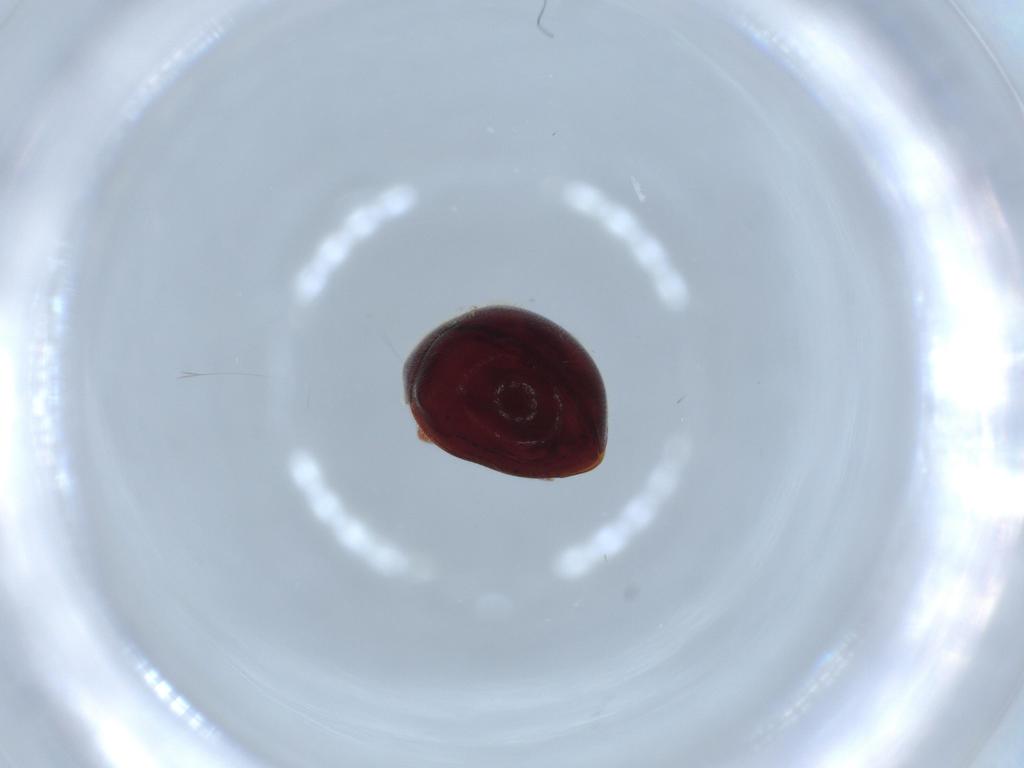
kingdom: Animalia
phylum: Arthropoda
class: Insecta
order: Coleoptera
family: Coccinellidae
